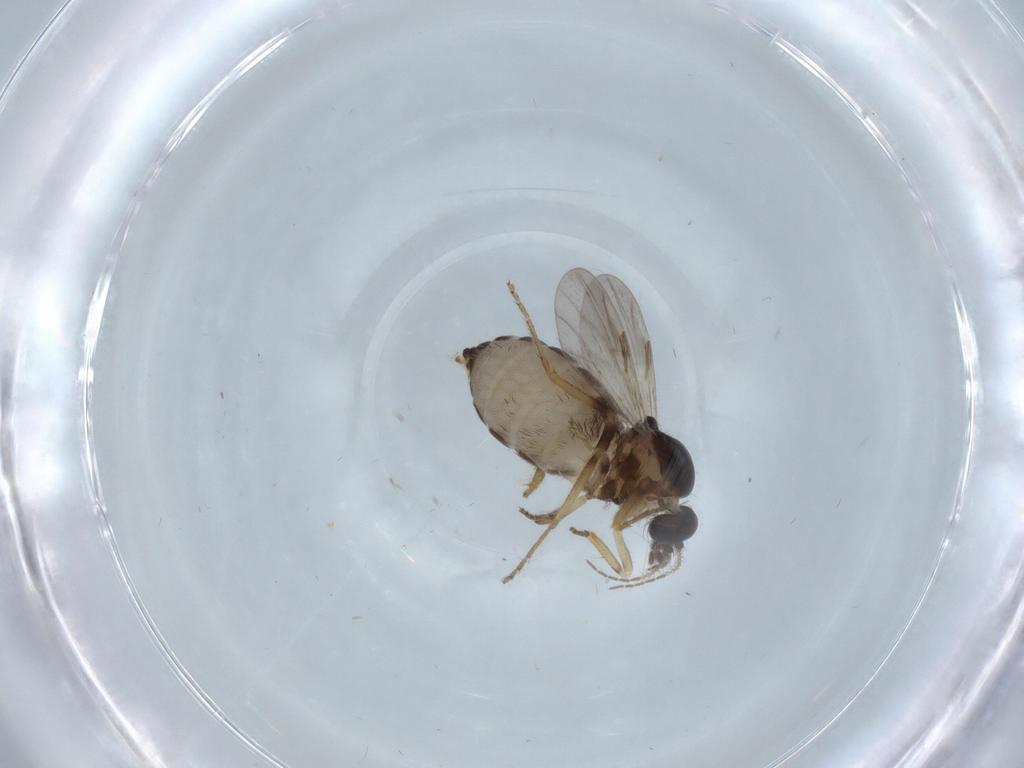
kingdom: Animalia
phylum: Arthropoda
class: Insecta
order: Diptera
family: Ceratopogonidae
